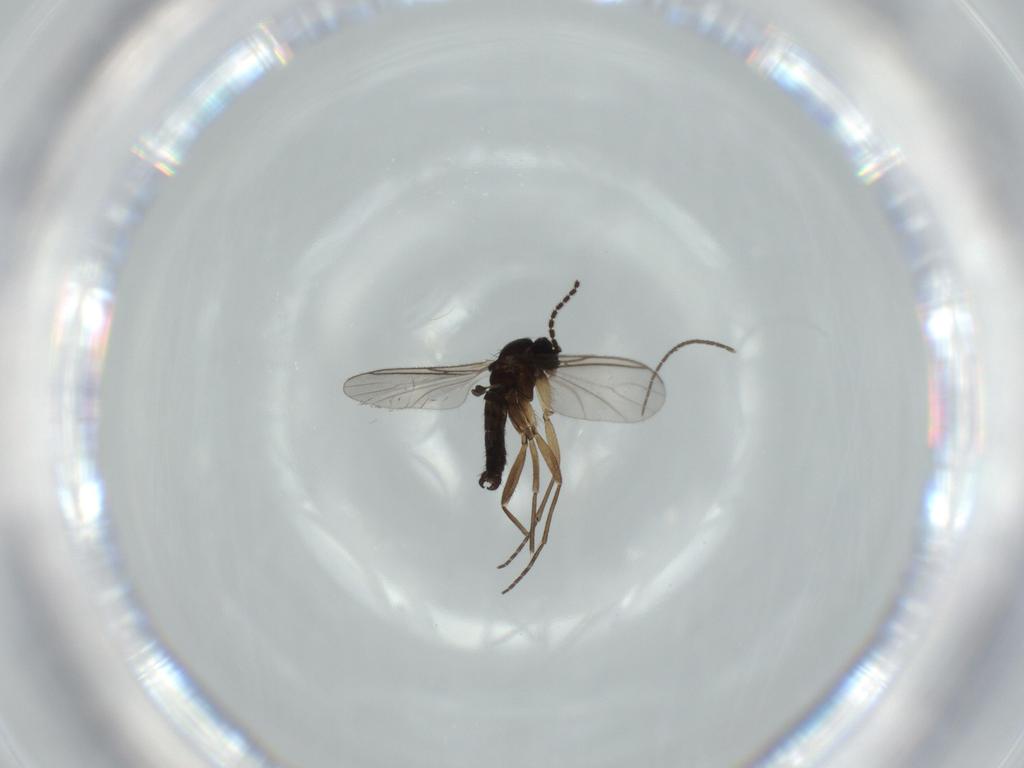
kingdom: Animalia
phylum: Arthropoda
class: Insecta
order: Diptera
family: Sciaridae
